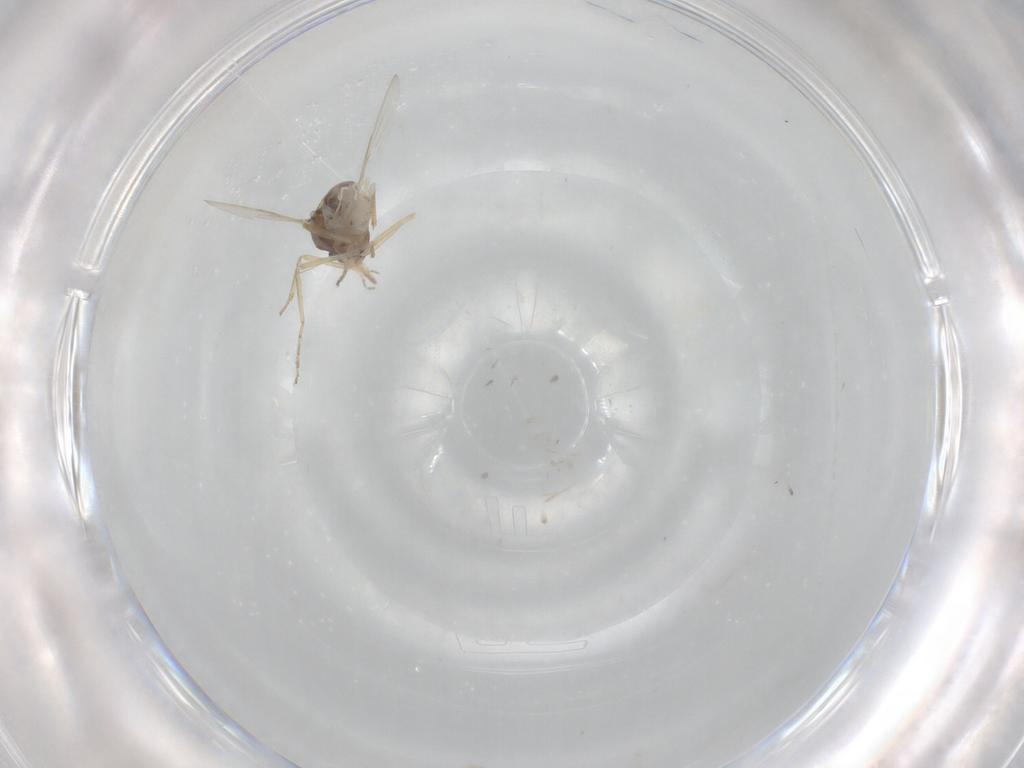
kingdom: Animalia
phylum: Arthropoda
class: Insecta
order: Diptera
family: Ceratopogonidae
